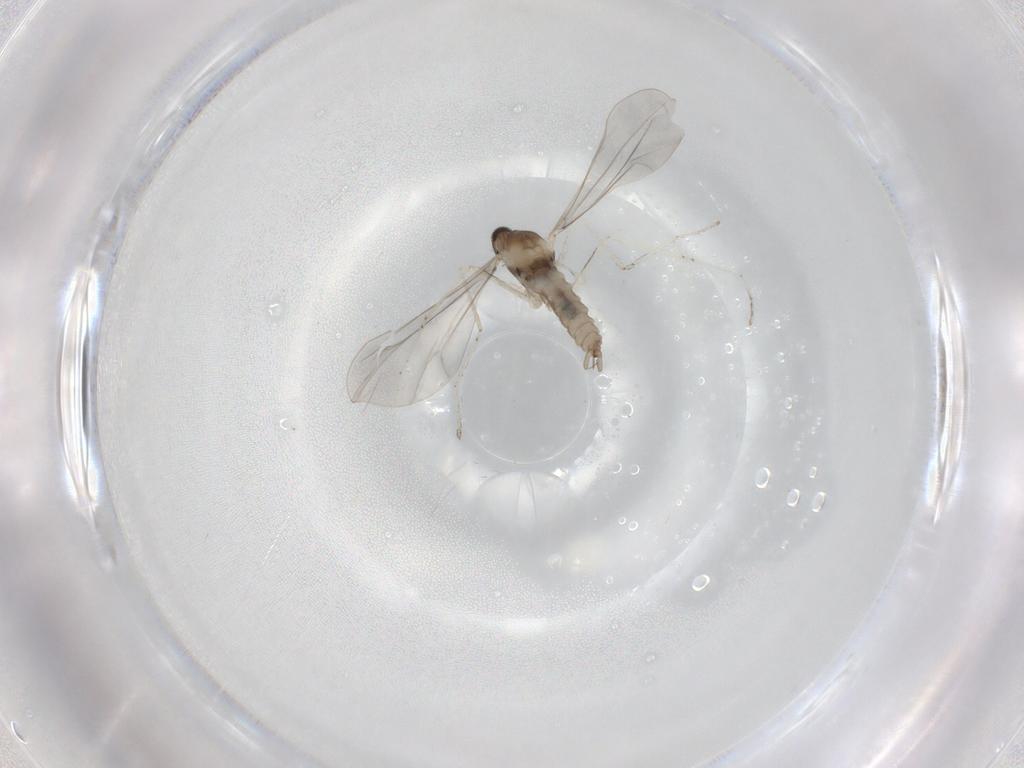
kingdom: Animalia
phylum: Arthropoda
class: Insecta
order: Diptera
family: Cecidomyiidae
